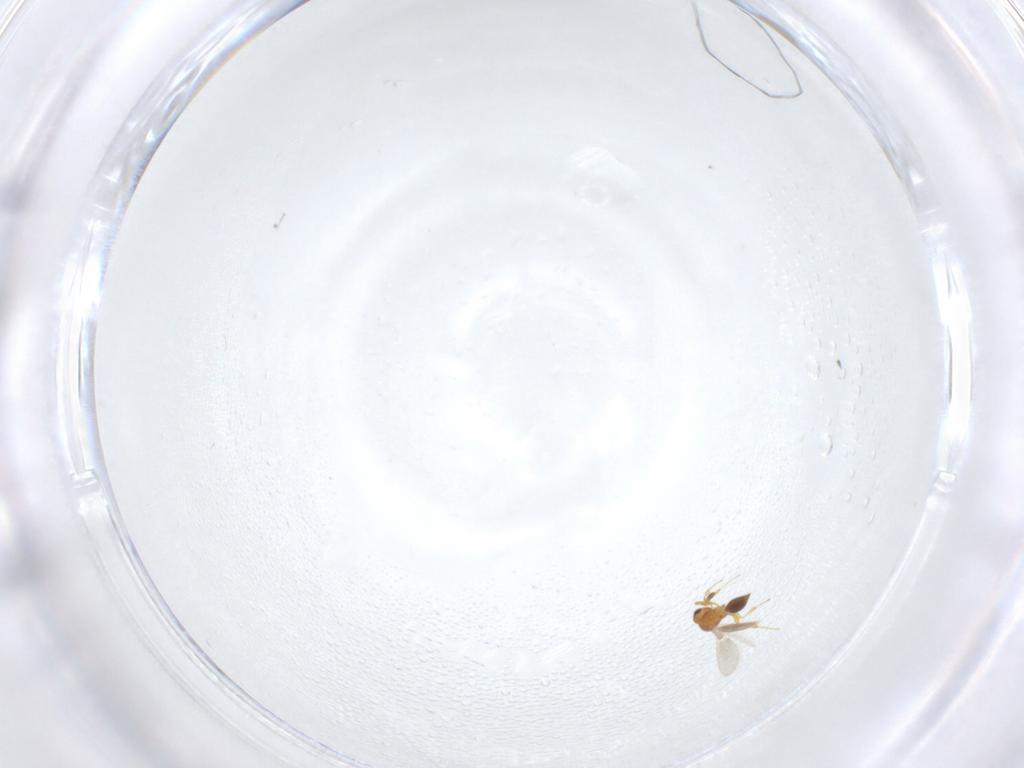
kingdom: Animalia
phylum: Arthropoda
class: Insecta
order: Hymenoptera
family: Platygastridae
